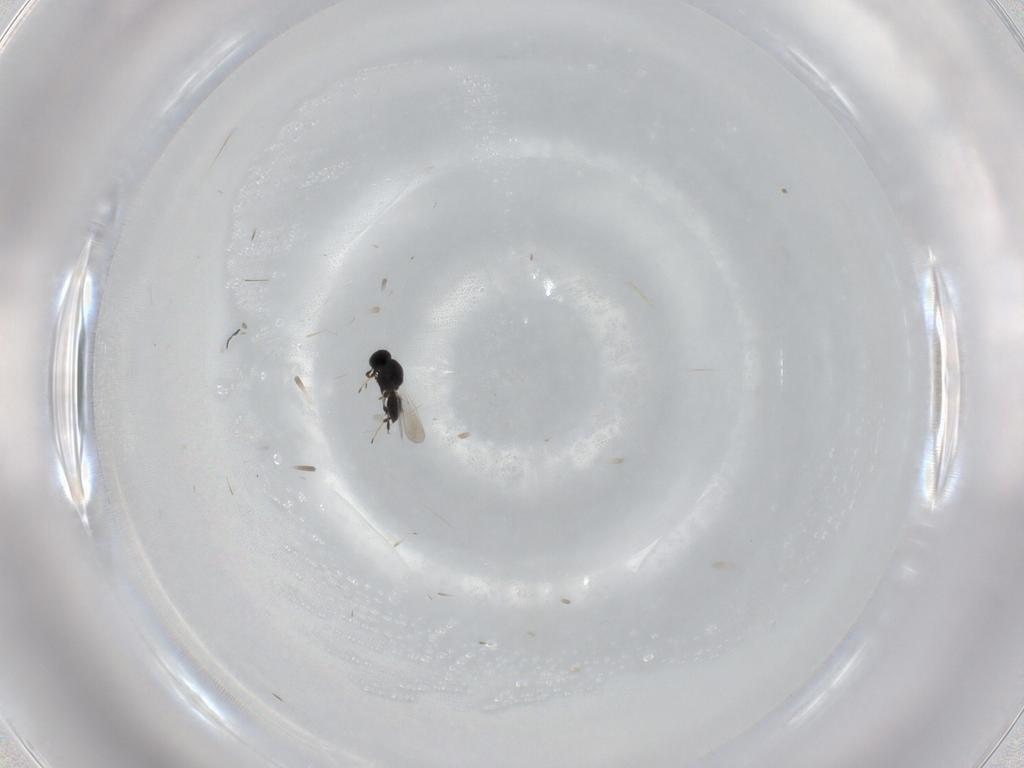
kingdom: Animalia
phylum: Arthropoda
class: Insecta
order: Hymenoptera
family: Platygastridae
